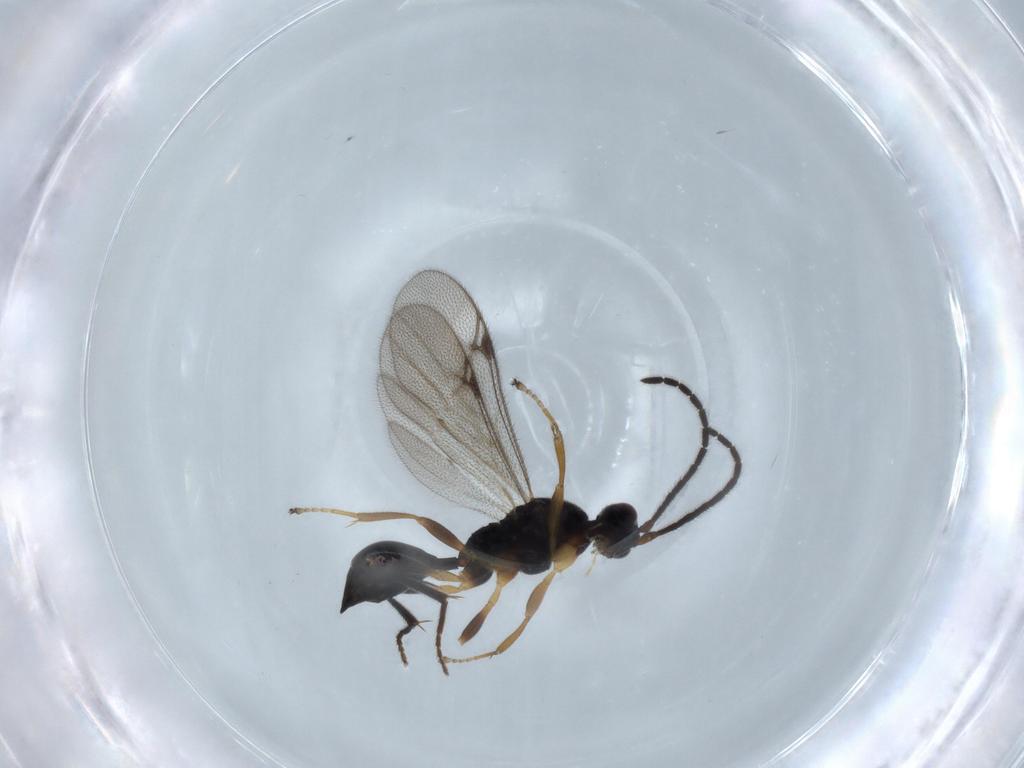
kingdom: Animalia
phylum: Arthropoda
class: Insecta
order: Hymenoptera
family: Proctotrupidae
